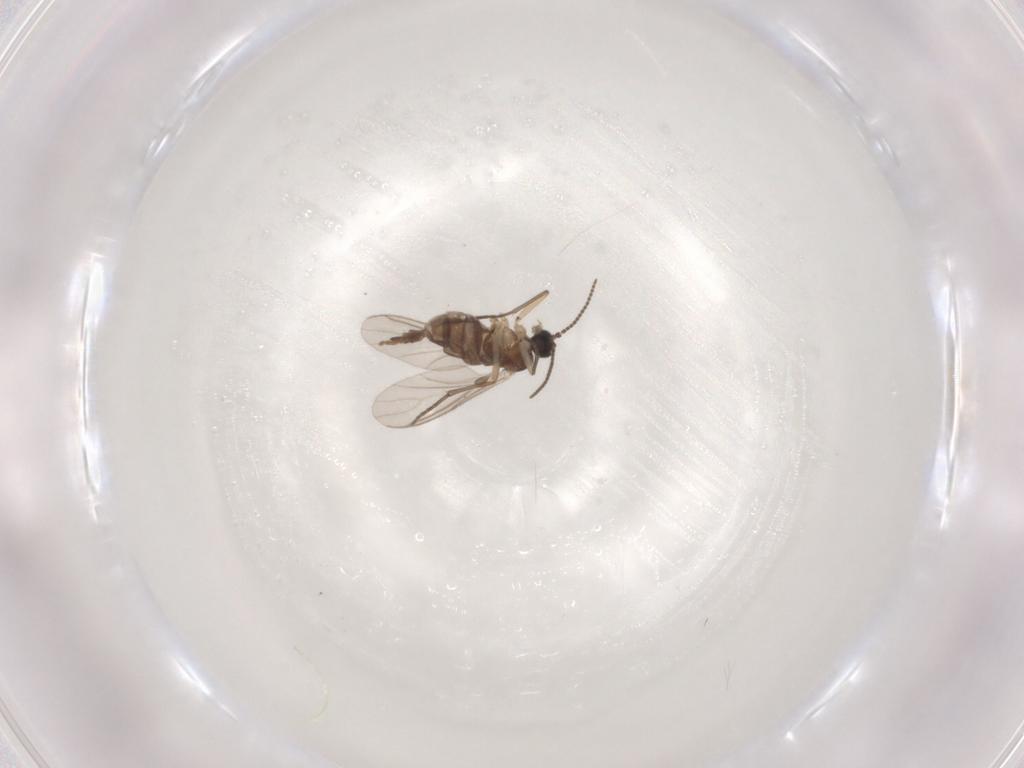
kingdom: Animalia
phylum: Arthropoda
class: Insecta
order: Diptera
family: Sciaridae
